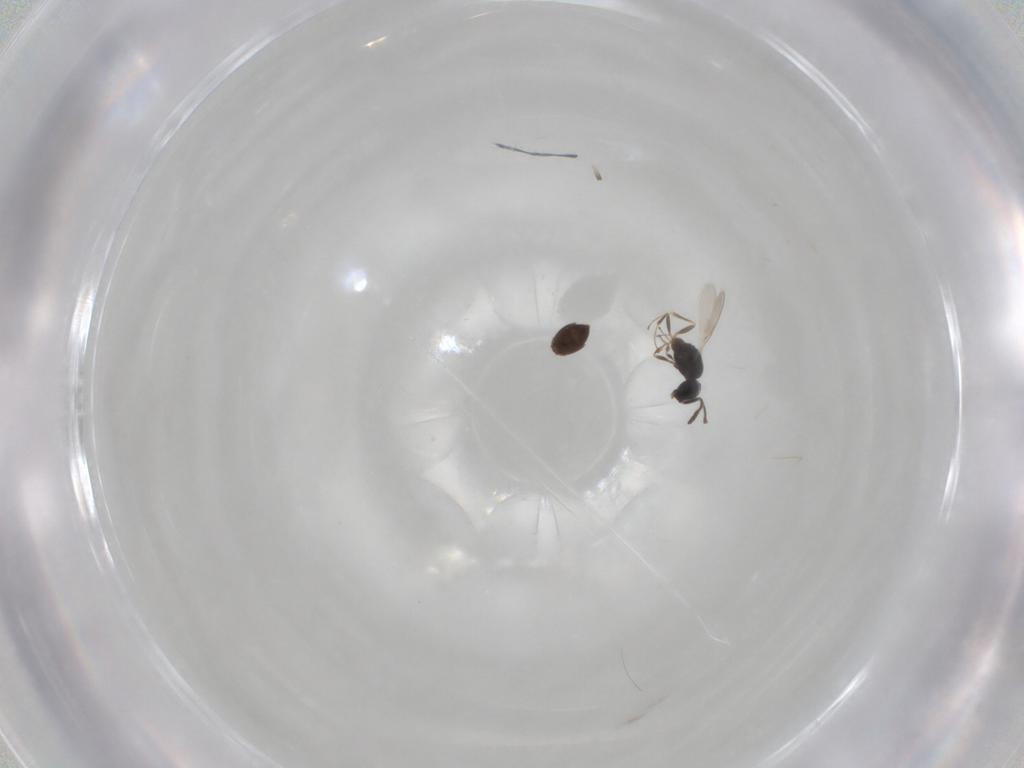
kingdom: Animalia
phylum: Arthropoda
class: Insecta
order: Hymenoptera
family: Scelionidae
